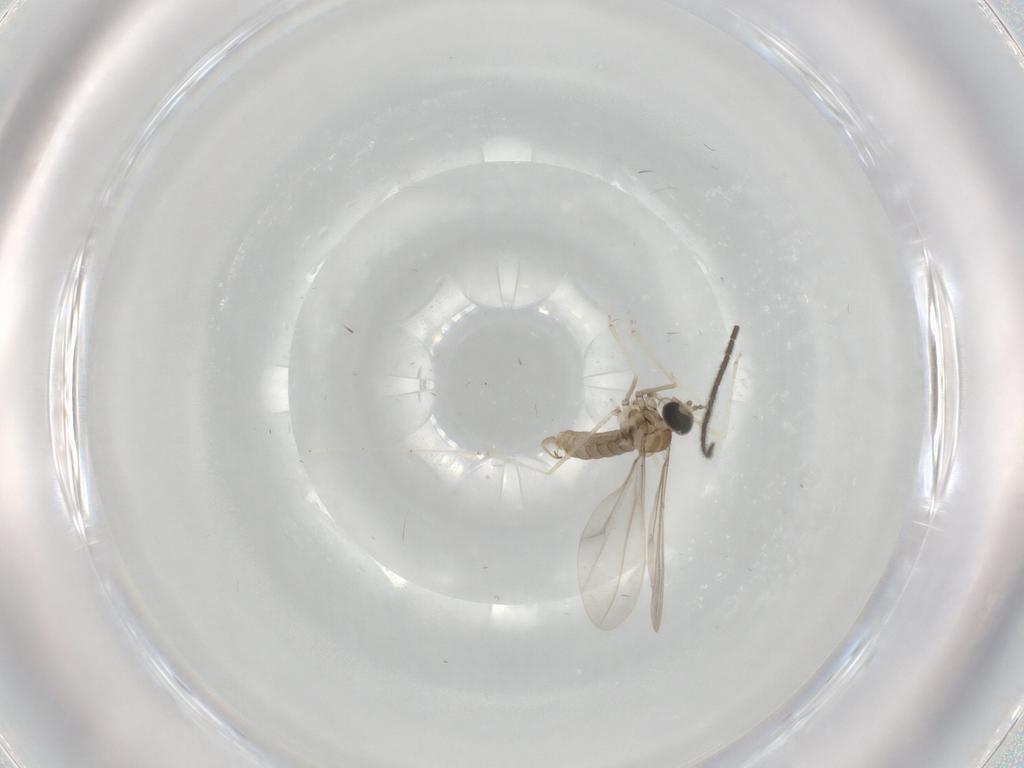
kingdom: Animalia
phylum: Arthropoda
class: Insecta
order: Diptera
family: Cecidomyiidae
